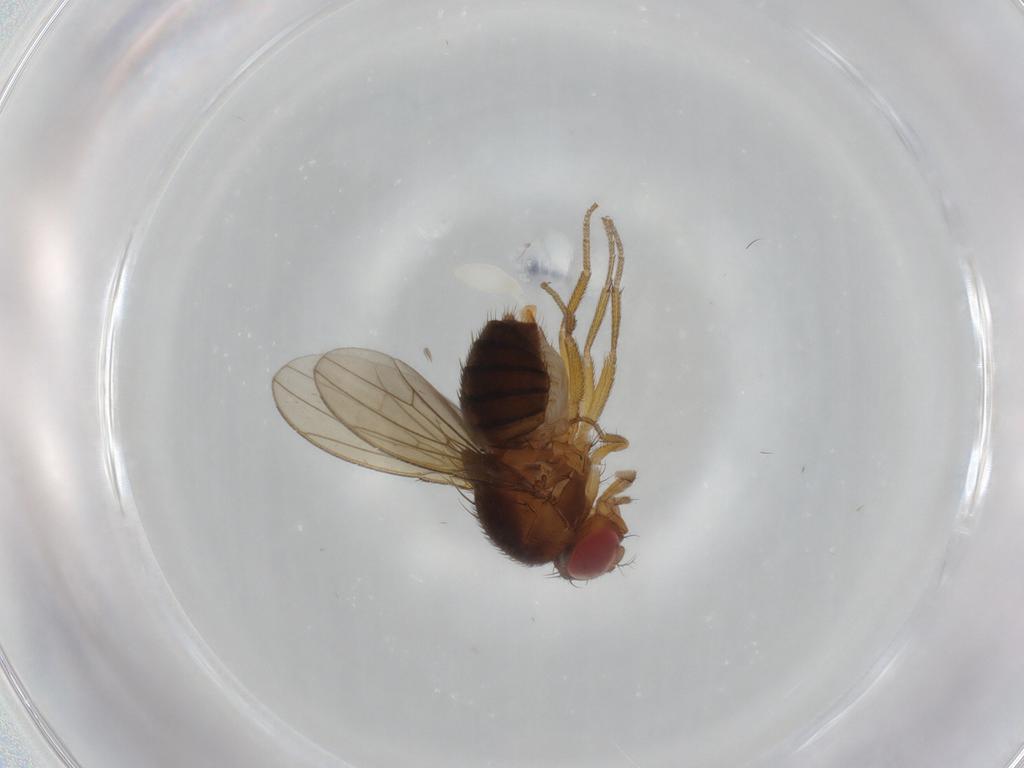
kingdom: Animalia
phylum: Arthropoda
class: Insecta
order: Diptera
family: Drosophilidae
